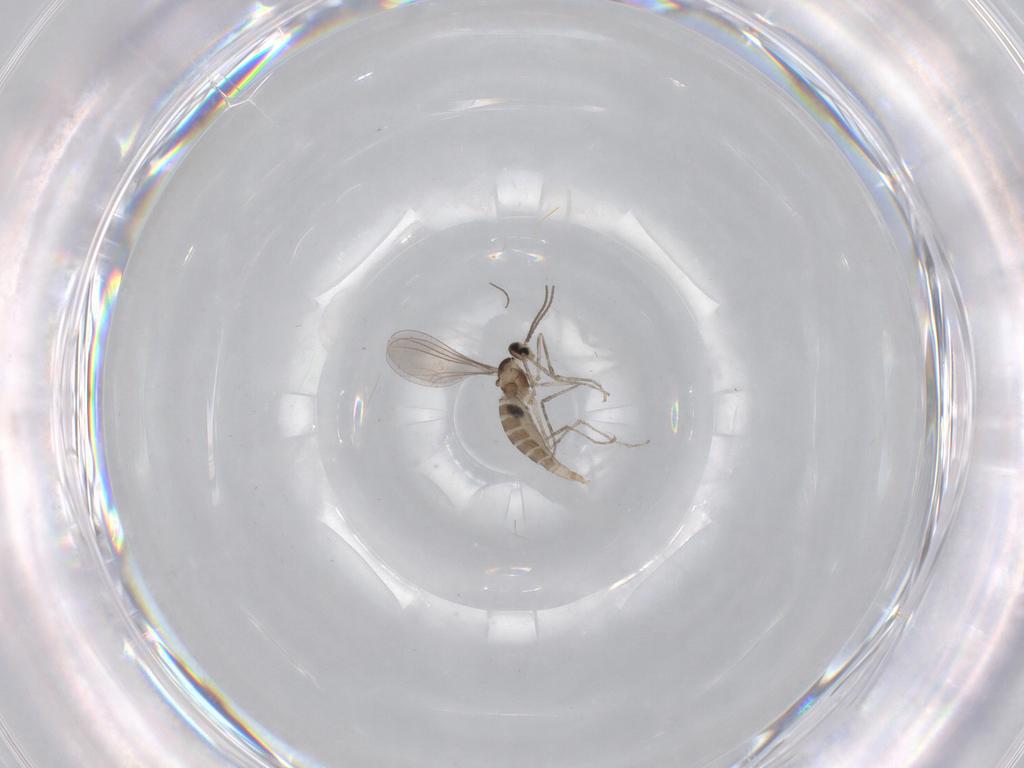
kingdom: Animalia
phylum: Arthropoda
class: Insecta
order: Diptera
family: Chironomidae
